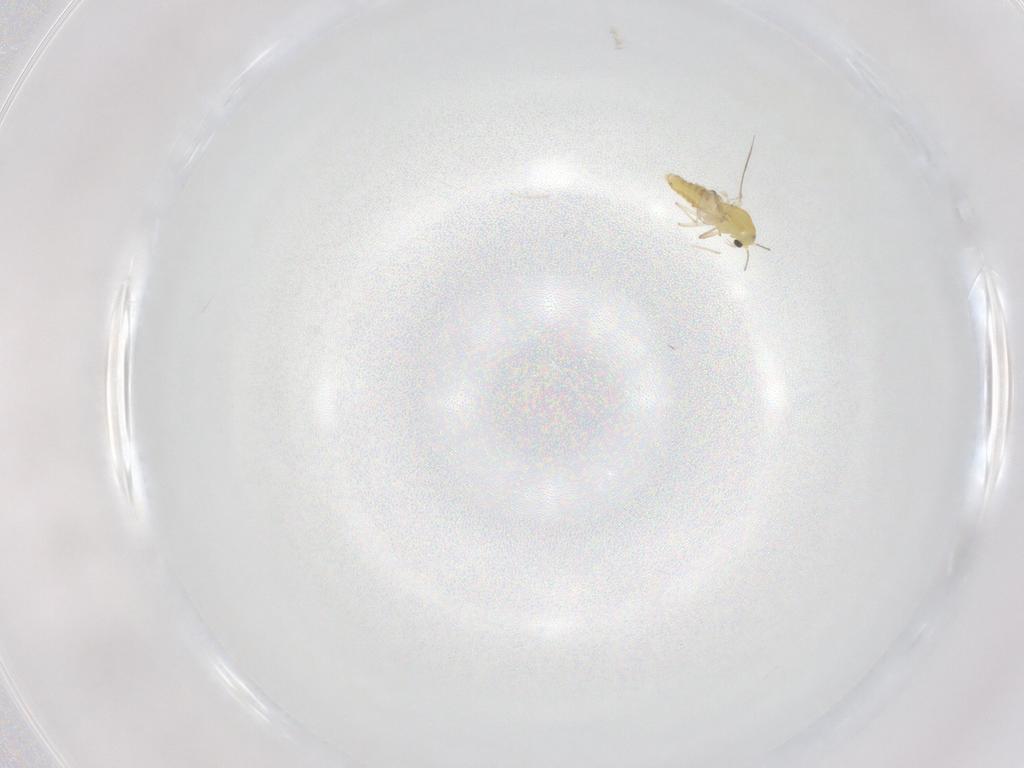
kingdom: Animalia
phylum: Arthropoda
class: Insecta
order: Diptera
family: Chironomidae
